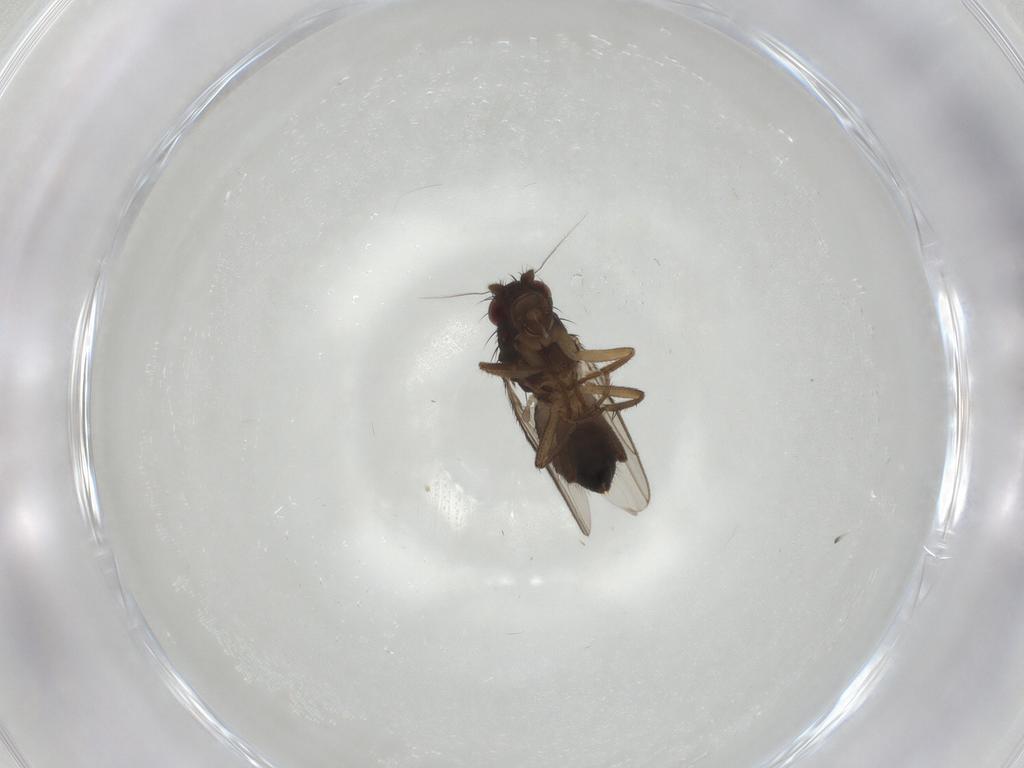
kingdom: Animalia
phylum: Arthropoda
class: Insecta
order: Diptera
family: Sphaeroceridae
